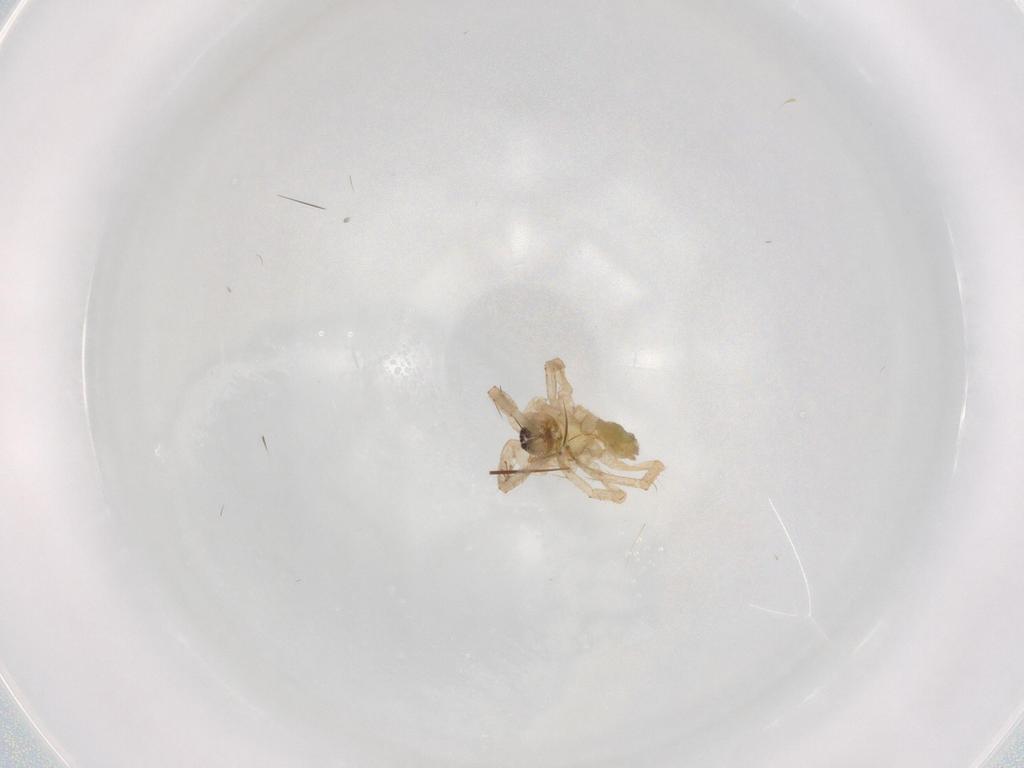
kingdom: Animalia
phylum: Arthropoda
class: Arachnida
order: Araneae
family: Anyphaenidae
